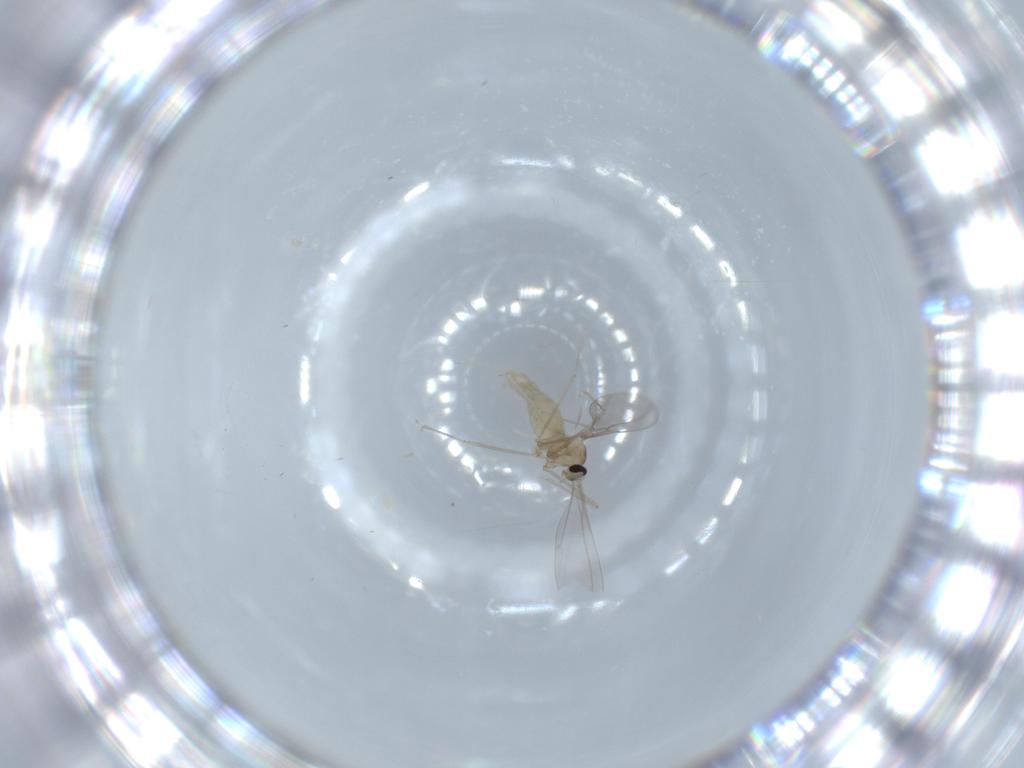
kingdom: Animalia
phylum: Arthropoda
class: Insecta
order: Diptera
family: Cecidomyiidae
